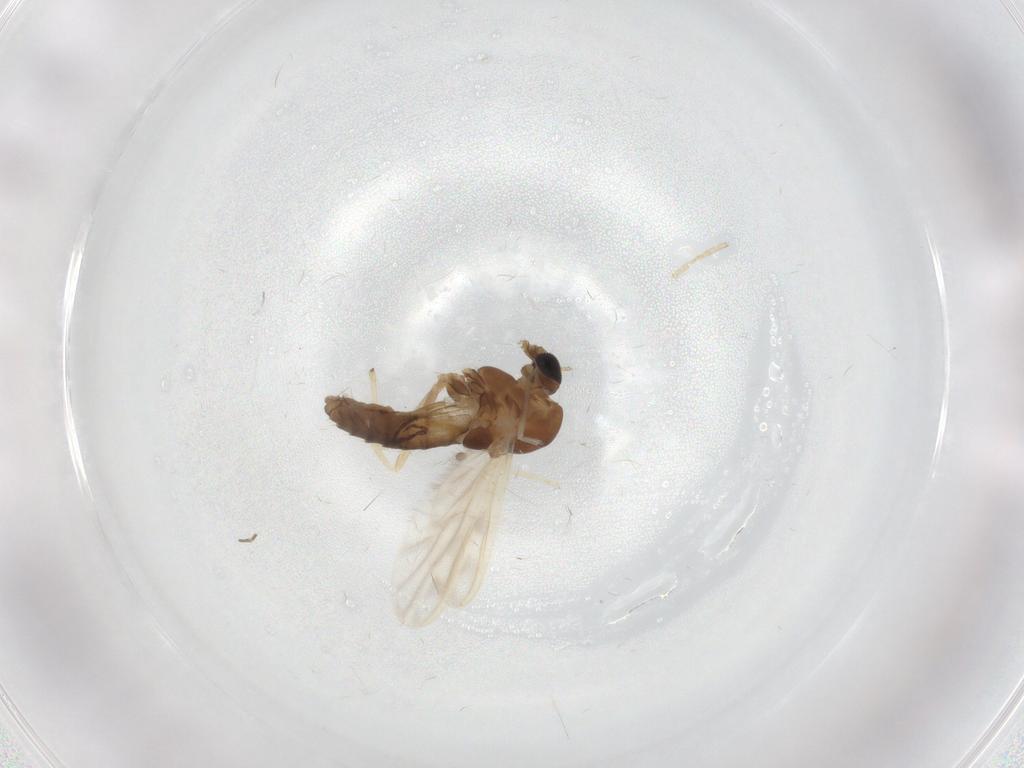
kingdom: Animalia
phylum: Arthropoda
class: Insecta
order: Diptera
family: Chironomidae
